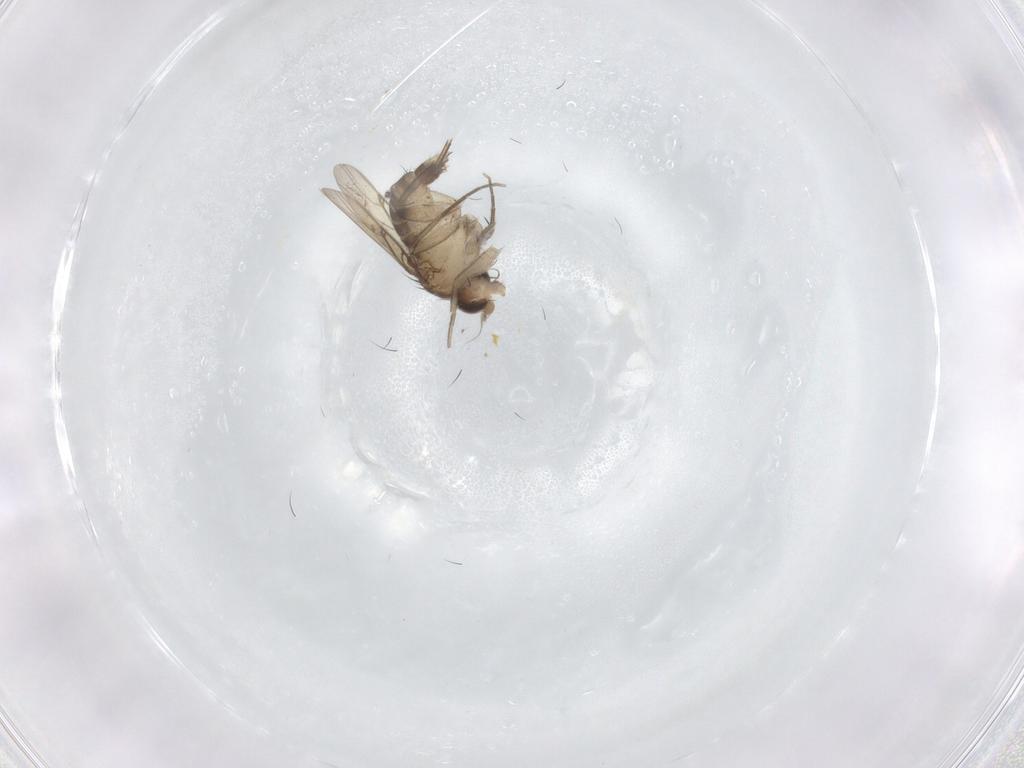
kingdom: Animalia
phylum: Arthropoda
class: Insecta
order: Diptera
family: Phoridae
